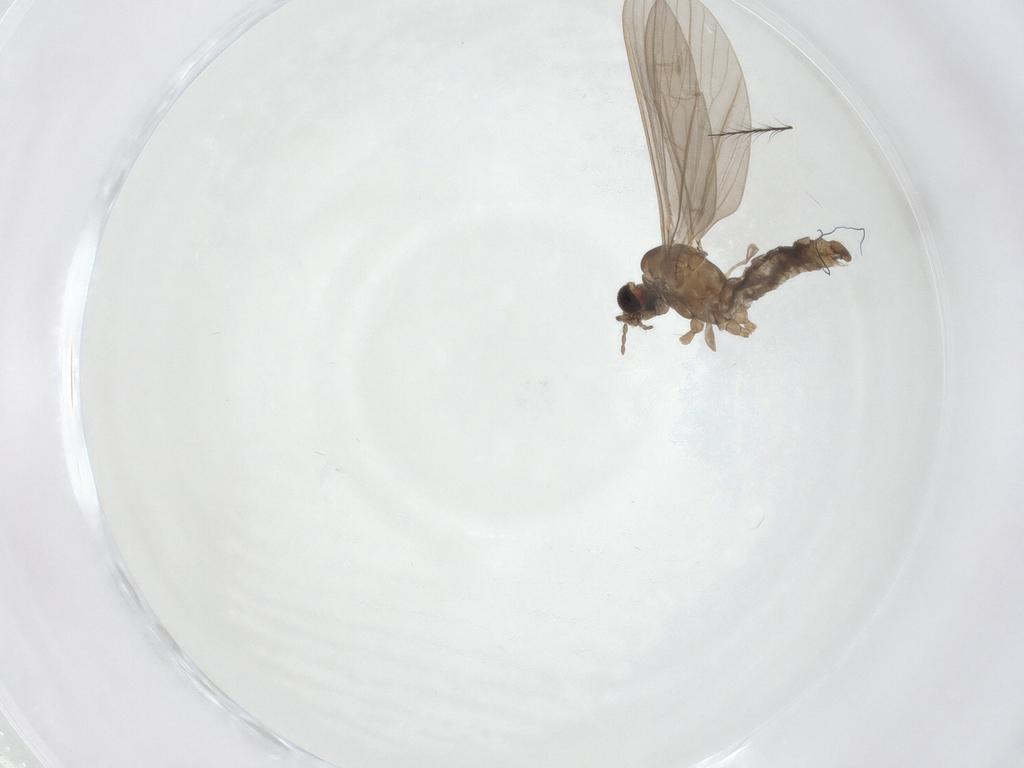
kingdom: Animalia
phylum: Arthropoda
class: Insecta
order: Diptera
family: Limoniidae
